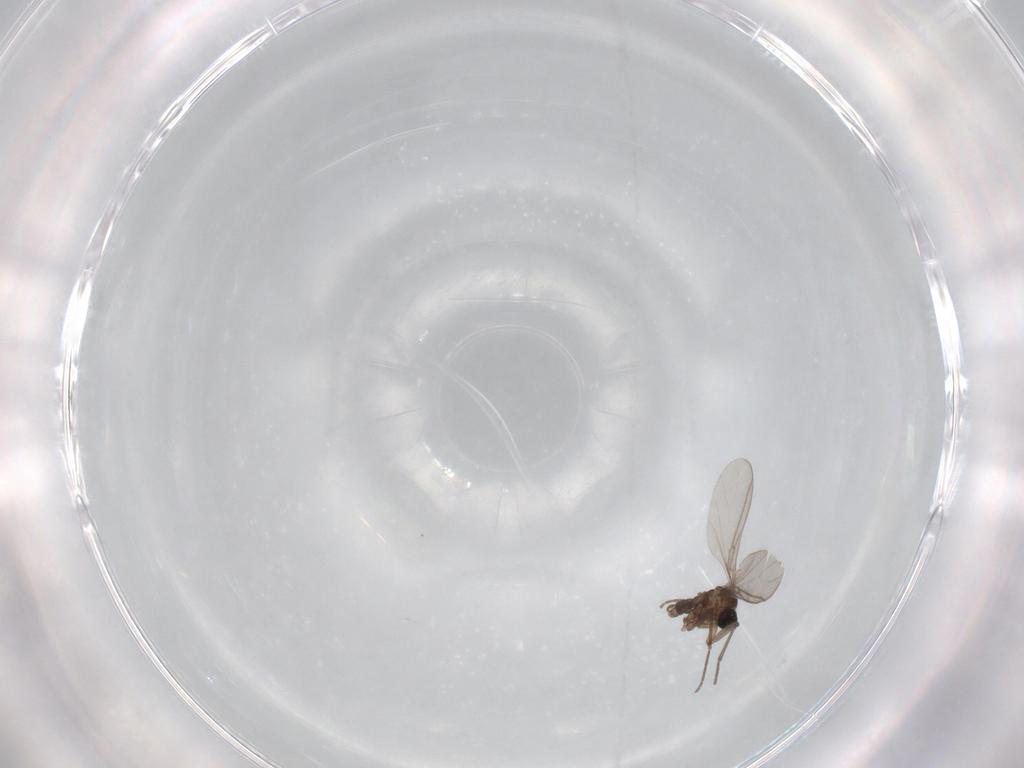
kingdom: Animalia
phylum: Arthropoda
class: Insecta
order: Diptera
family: Sciaridae
